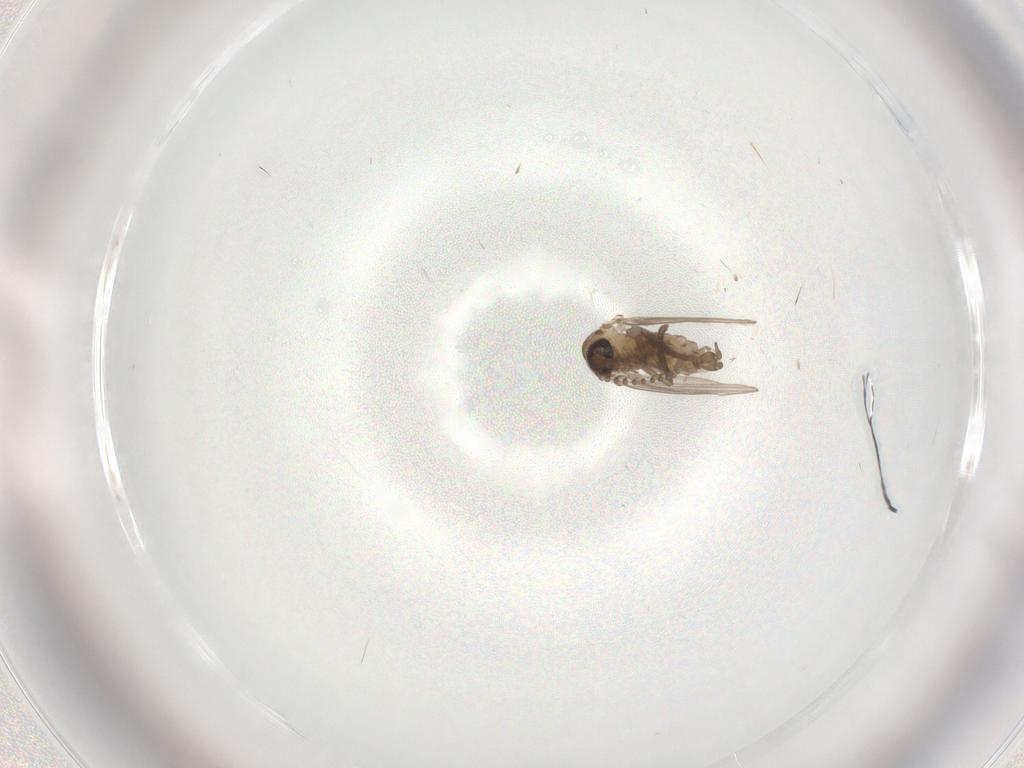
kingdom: Animalia
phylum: Arthropoda
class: Insecta
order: Diptera
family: Psychodidae
